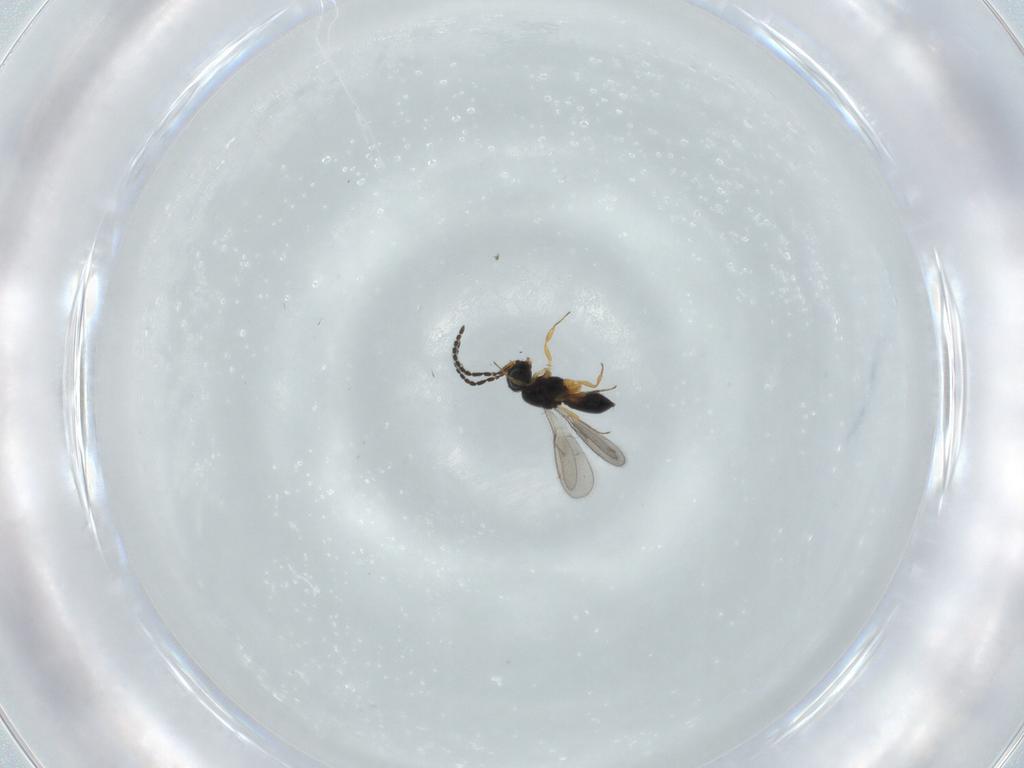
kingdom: Animalia
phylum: Arthropoda
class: Insecta
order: Hymenoptera
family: Scelionidae
